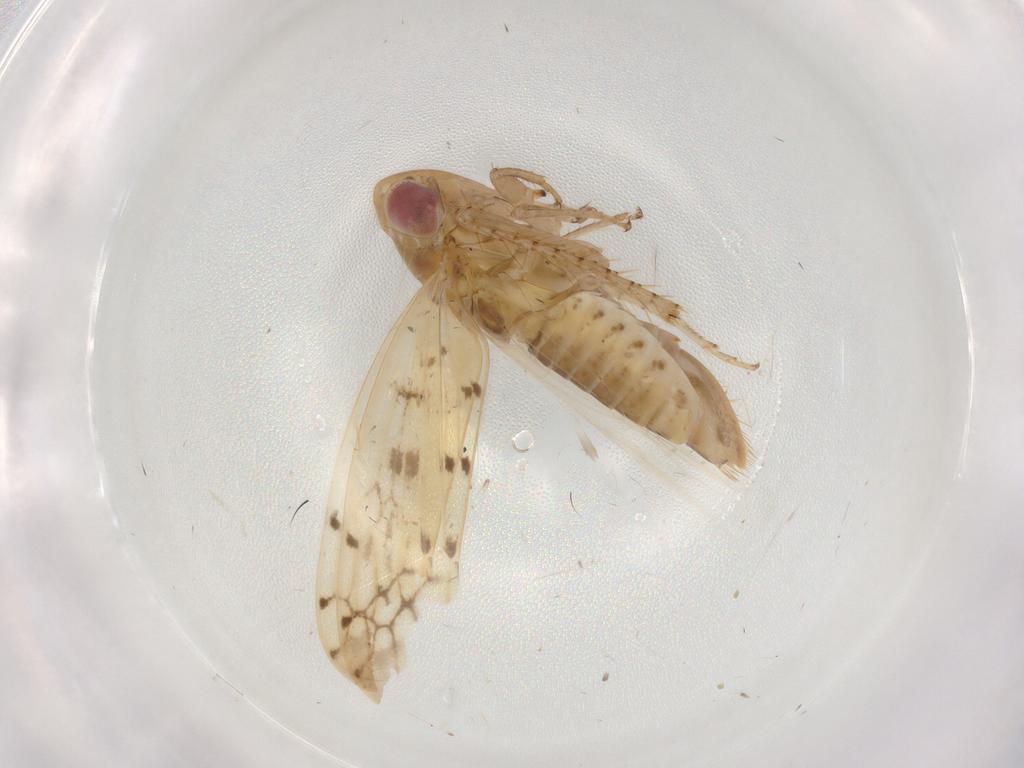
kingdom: Animalia
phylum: Arthropoda
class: Insecta
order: Hemiptera
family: Cicadellidae
